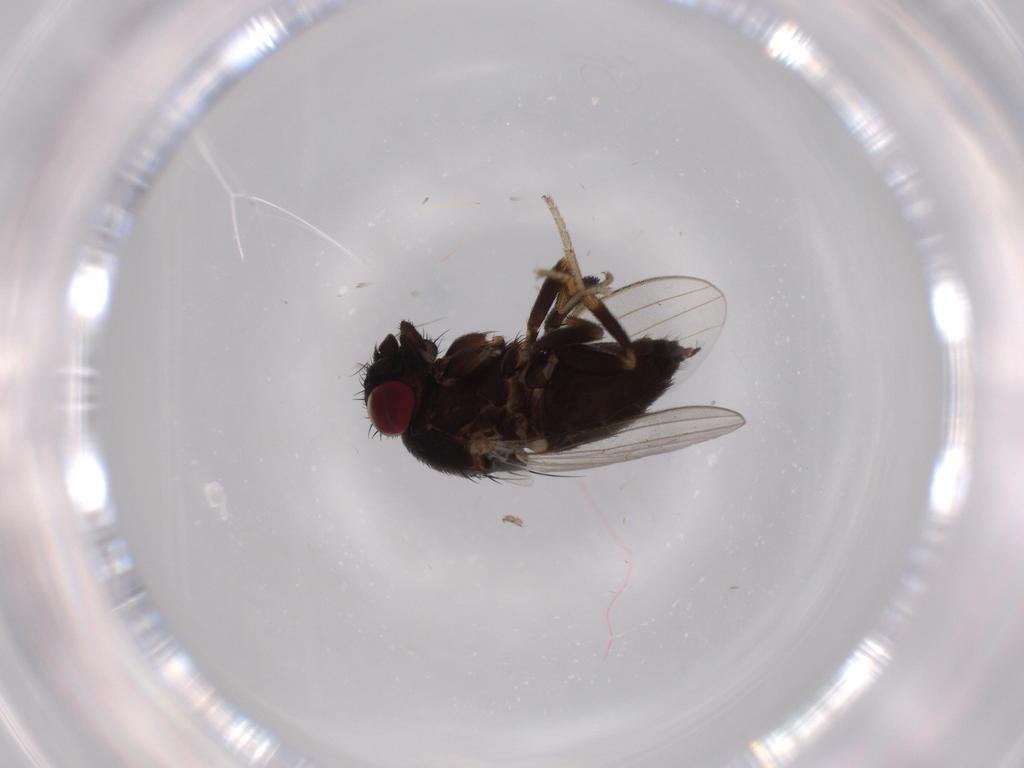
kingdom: Animalia
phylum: Arthropoda
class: Insecta
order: Diptera
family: Milichiidae
